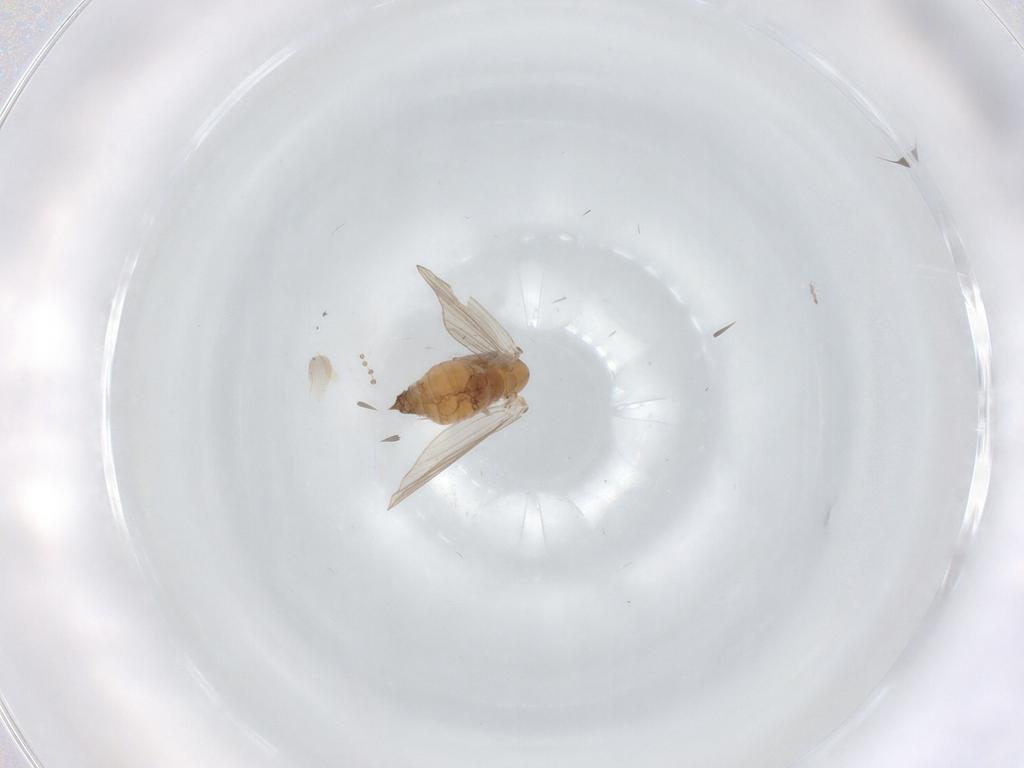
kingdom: Animalia
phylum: Arthropoda
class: Insecta
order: Diptera
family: Psychodidae
